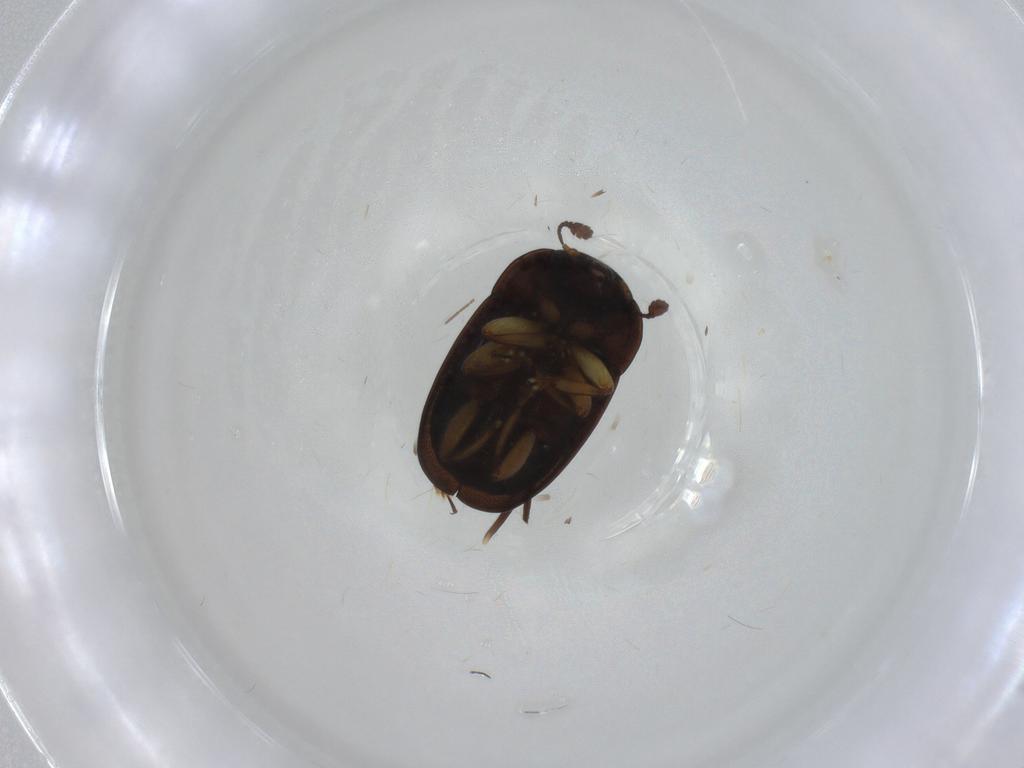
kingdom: Animalia
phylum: Arthropoda
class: Insecta
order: Coleoptera
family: Nitidulidae
